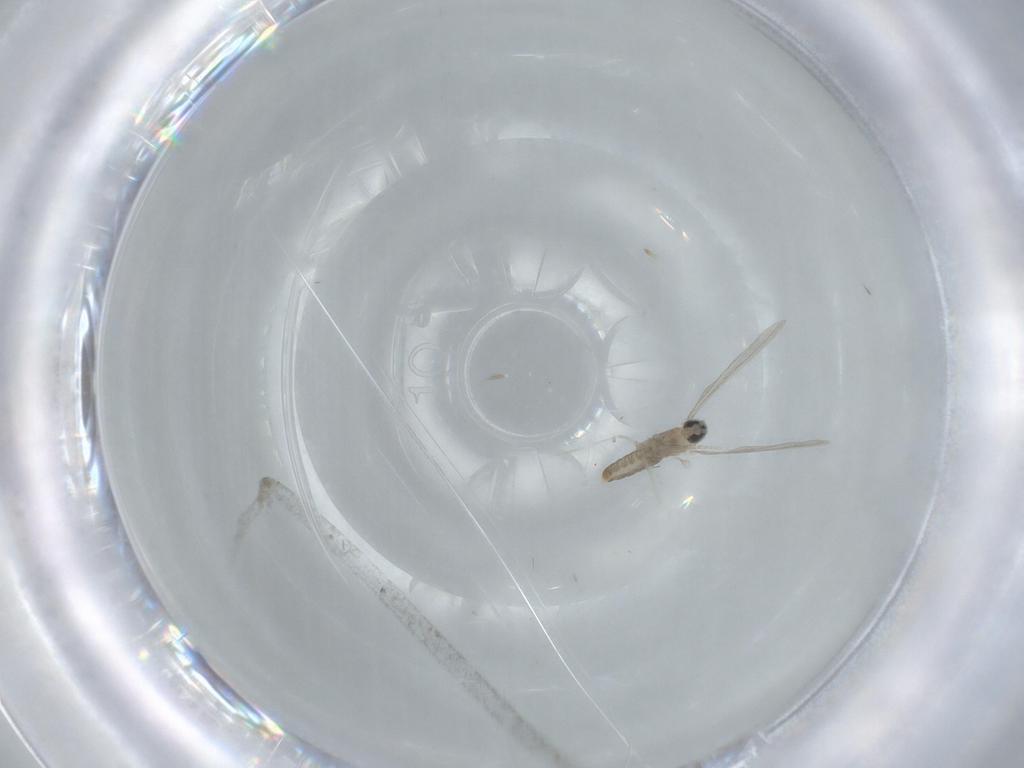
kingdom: Animalia
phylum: Arthropoda
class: Insecta
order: Diptera
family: Cecidomyiidae
